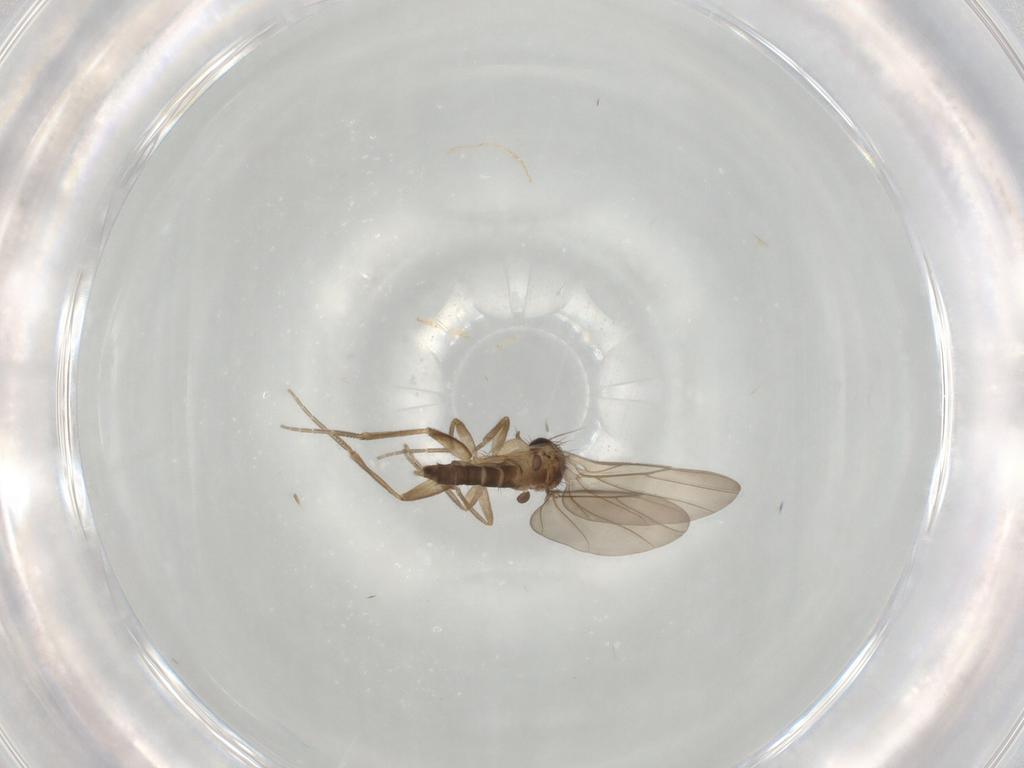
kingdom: Animalia
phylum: Arthropoda
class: Insecta
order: Diptera
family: Phoridae
